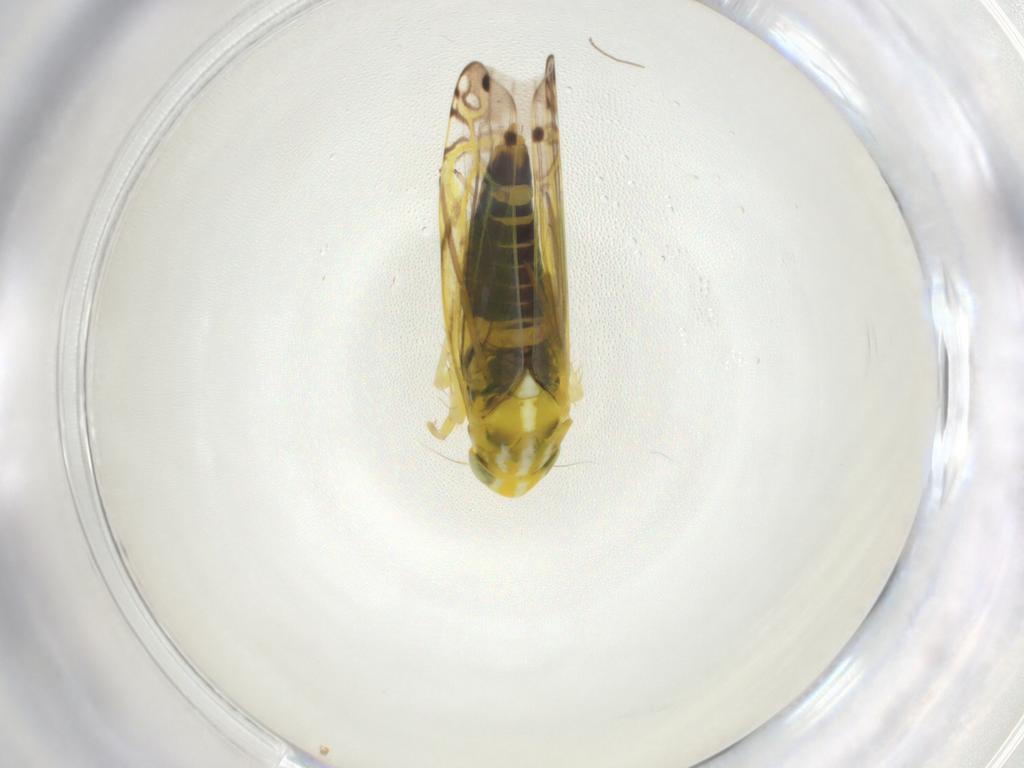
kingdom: Animalia
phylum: Arthropoda
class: Insecta
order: Hemiptera
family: Cicadellidae
